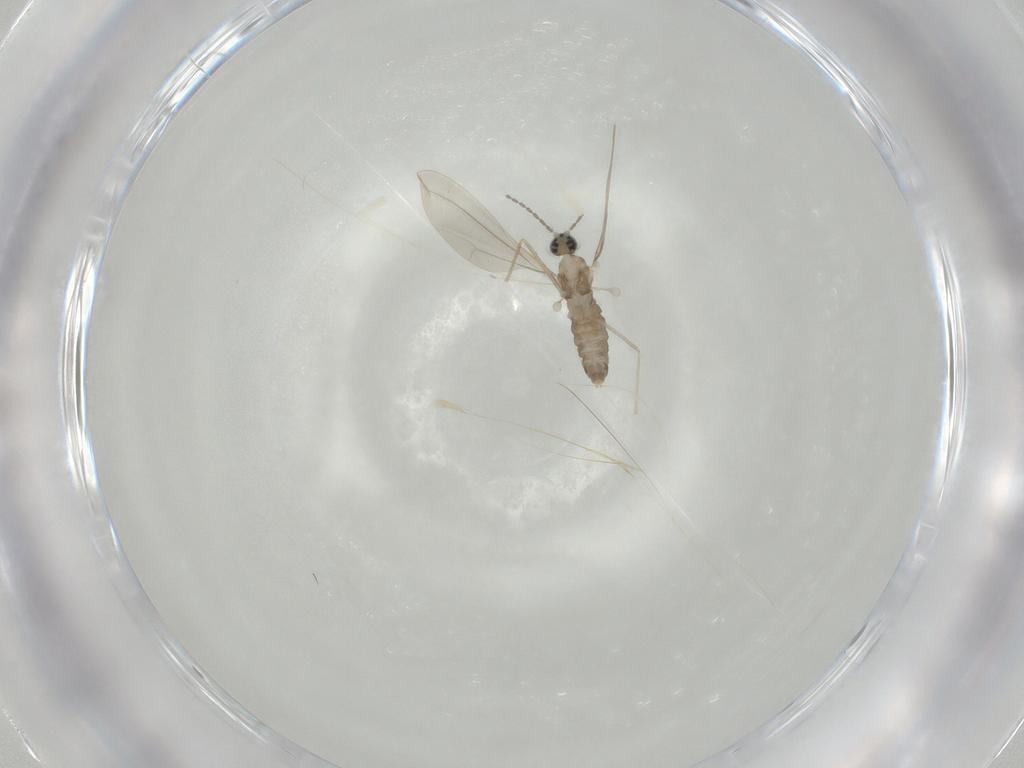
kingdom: Animalia
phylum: Arthropoda
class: Insecta
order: Diptera
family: Cecidomyiidae
